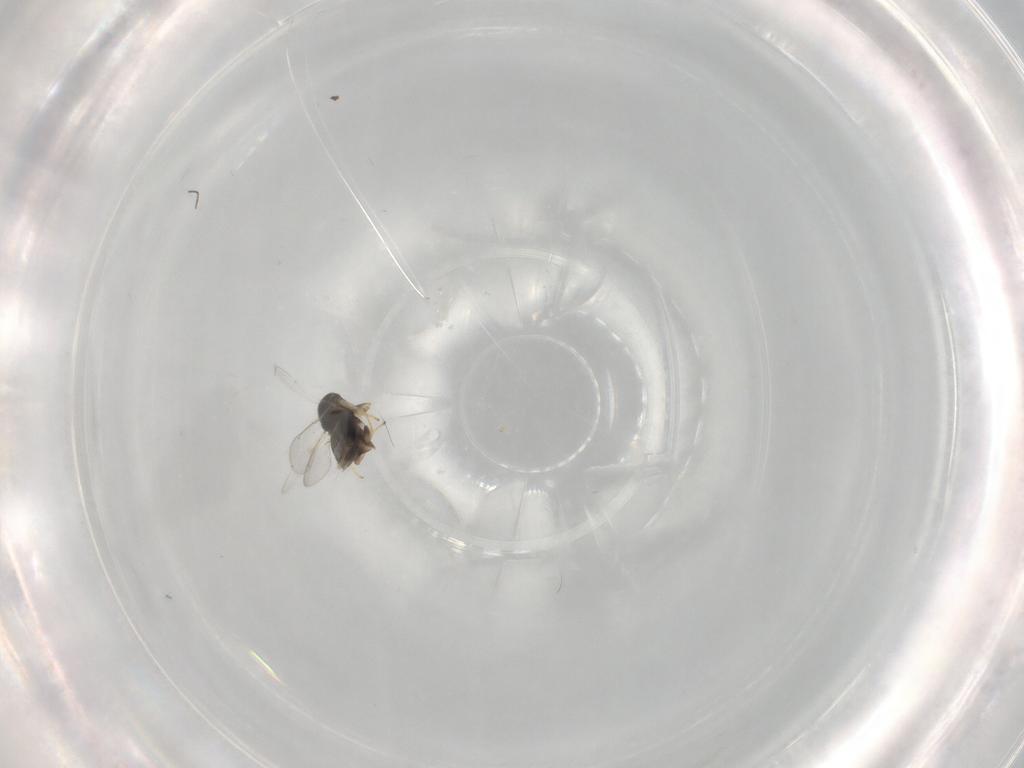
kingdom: Animalia
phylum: Arthropoda
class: Insecta
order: Hymenoptera
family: Aphelinidae
